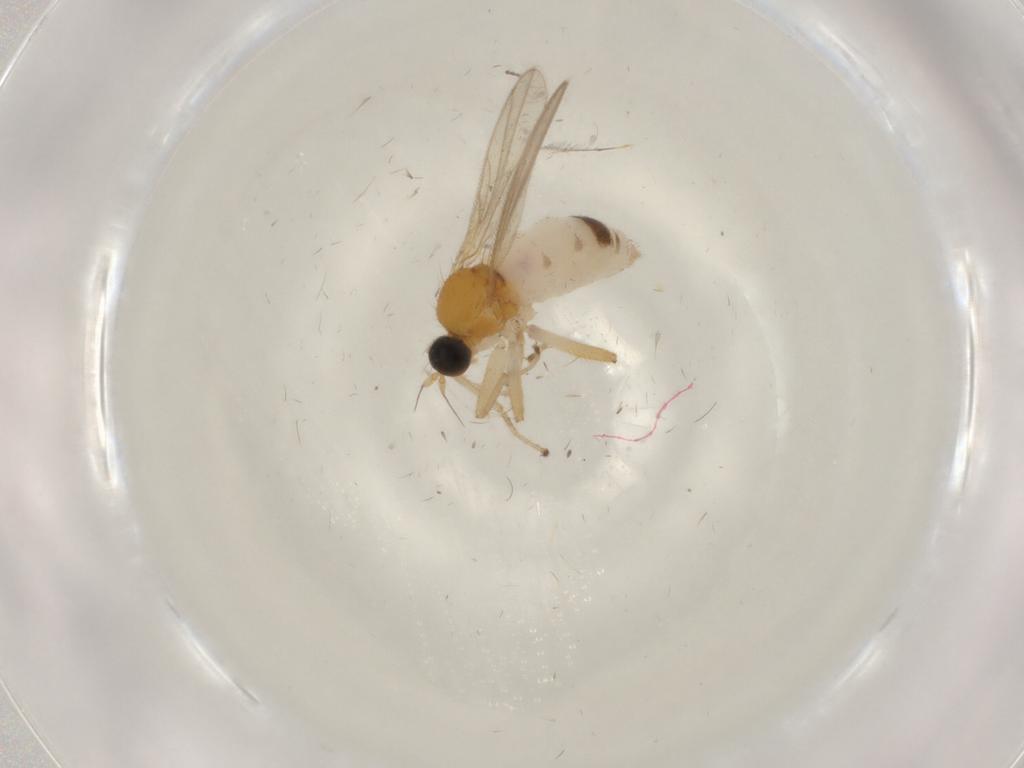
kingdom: Animalia
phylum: Arthropoda
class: Insecta
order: Diptera
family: Hybotidae
